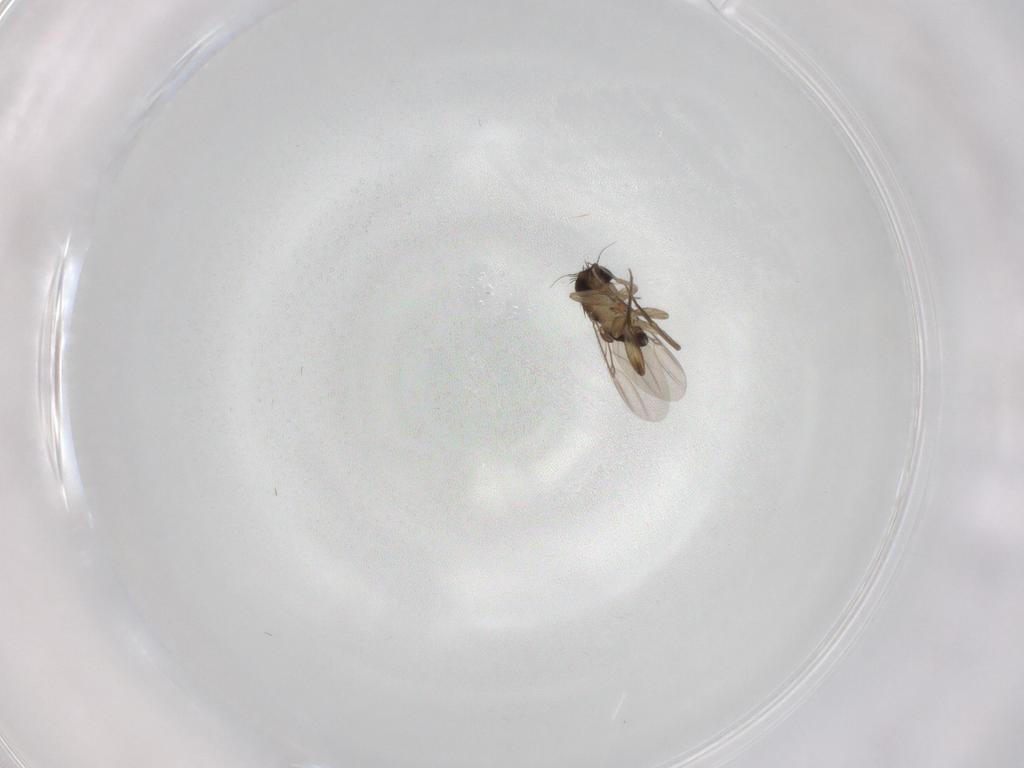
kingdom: Animalia
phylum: Arthropoda
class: Insecta
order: Diptera
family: Phoridae
